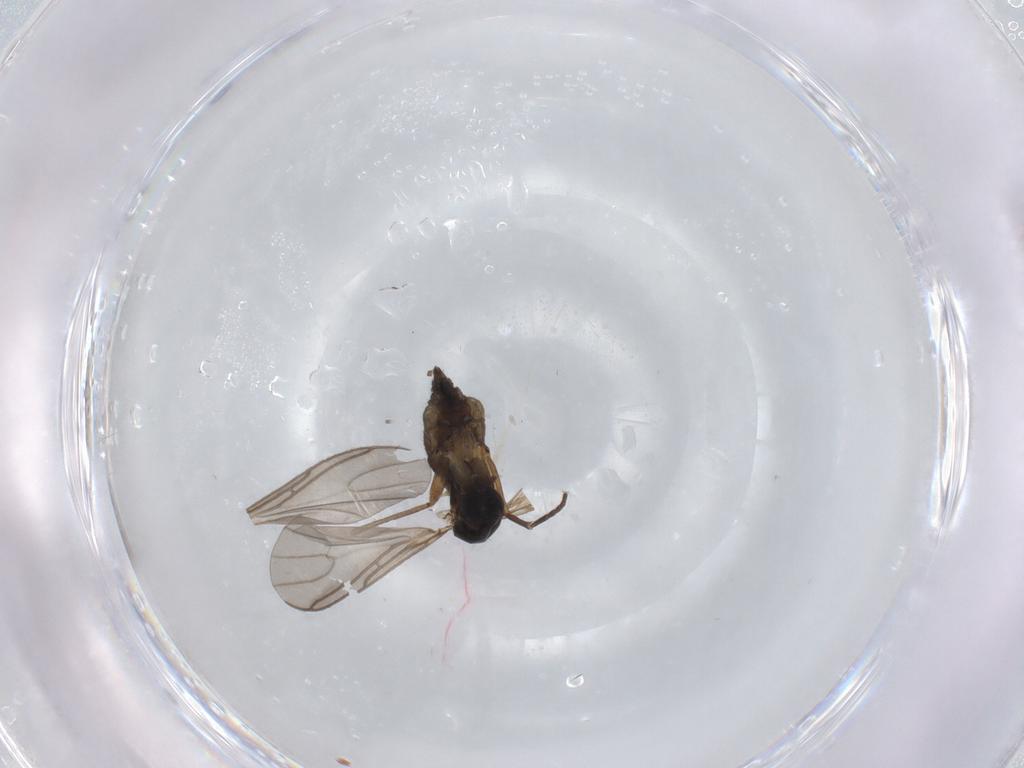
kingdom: Animalia
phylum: Arthropoda
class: Insecta
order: Diptera
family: Sciaridae
